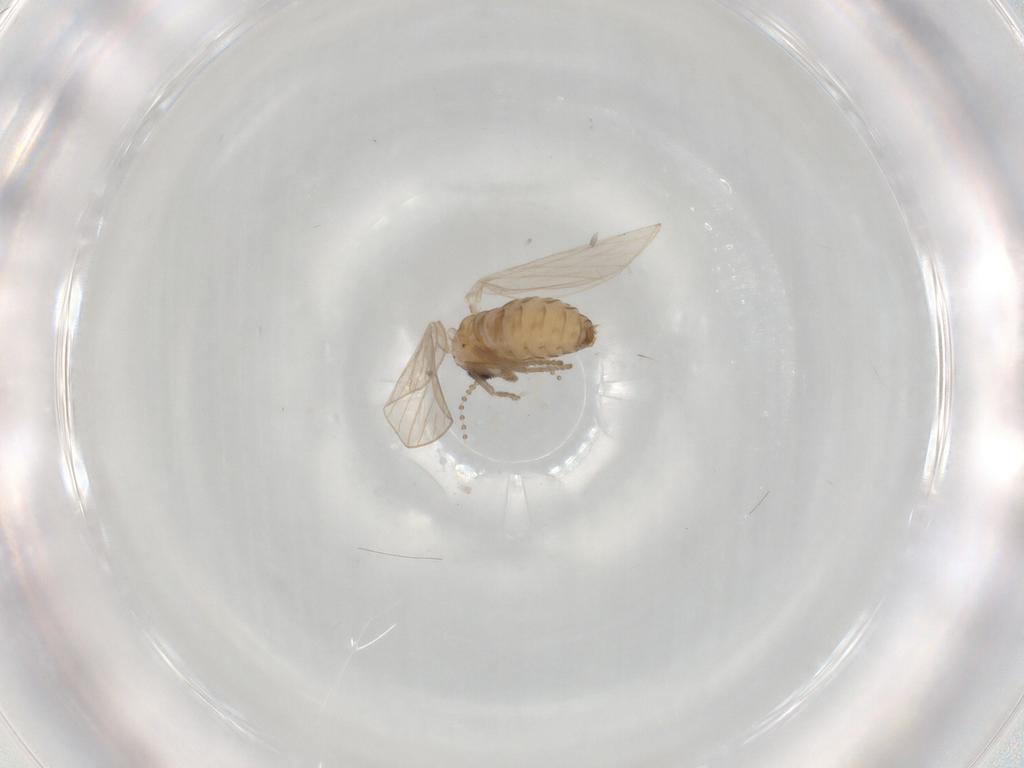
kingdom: Animalia
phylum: Arthropoda
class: Insecta
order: Diptera
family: Psychodidae
